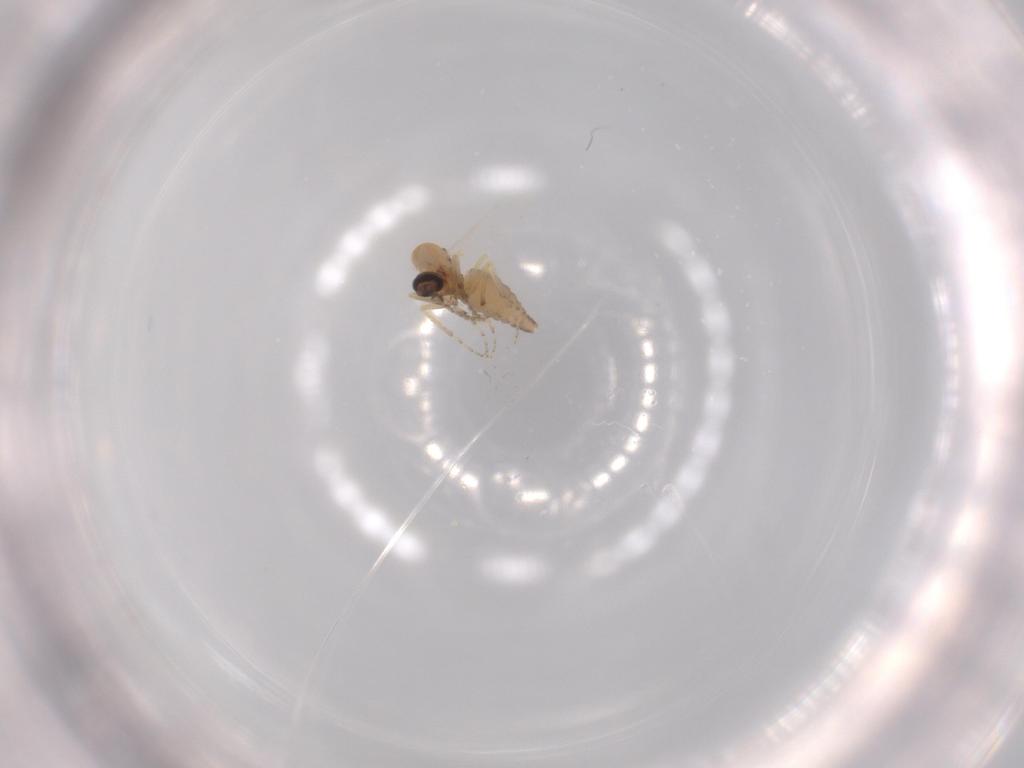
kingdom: Animalia
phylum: Arthropoda
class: Insecta
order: Diptera
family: Ceratopogonidae
